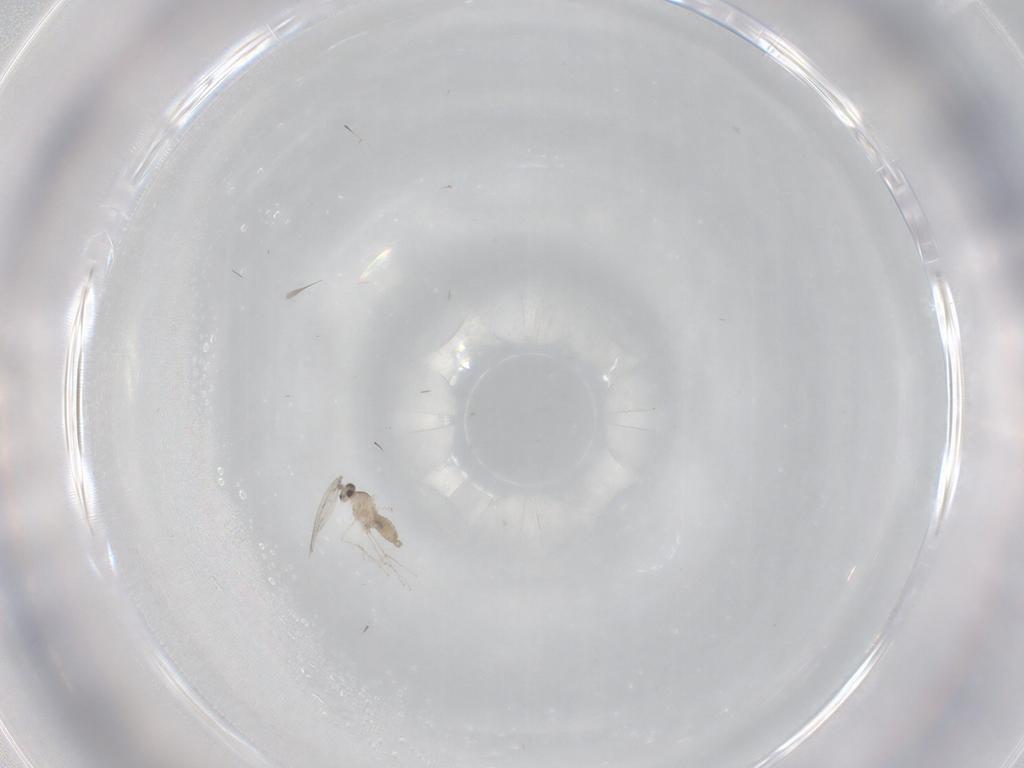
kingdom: Animalia
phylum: Arthropoda
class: Insecta
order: Diptera
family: Cecidomyiidae
